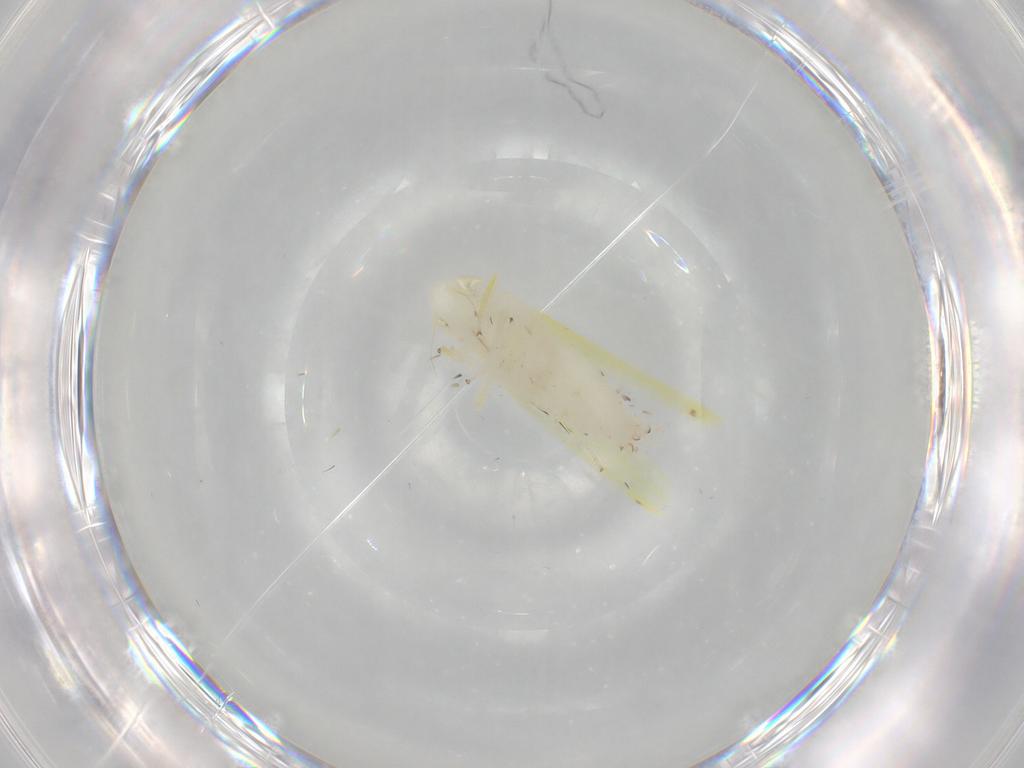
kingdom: Animalia
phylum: Arthropoda
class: Insecta
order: Hemiptera
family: Cicadellidae
